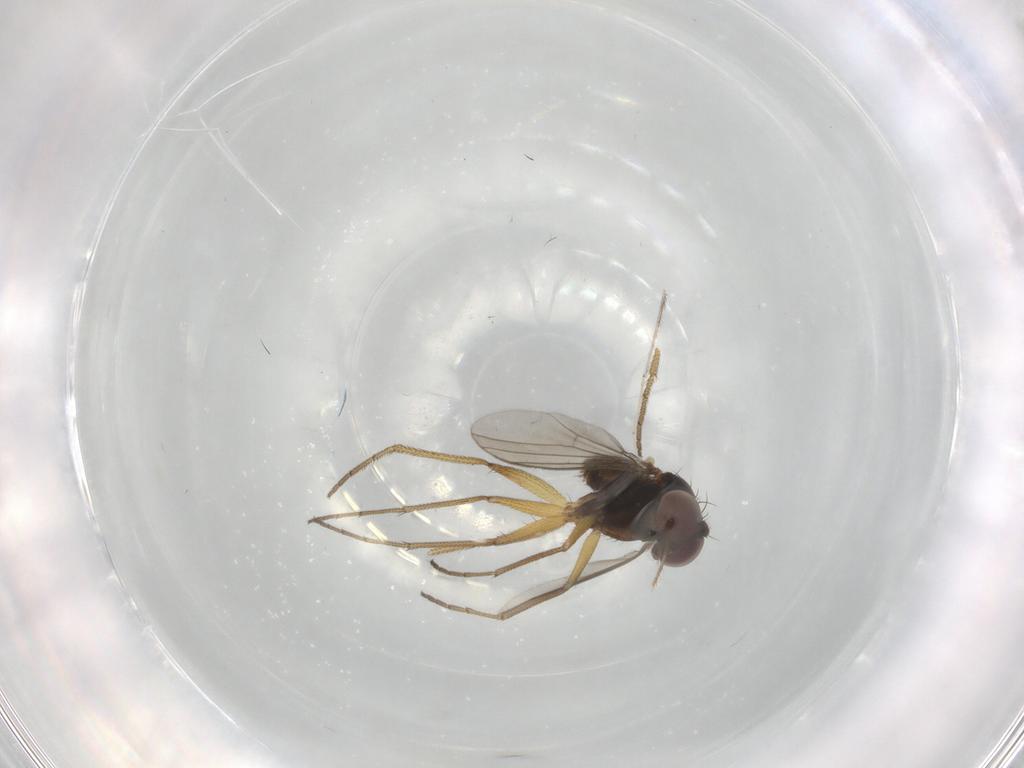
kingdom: Animalia
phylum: Arthropoda
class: Insecta
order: Diptera
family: Dolichopodidae
